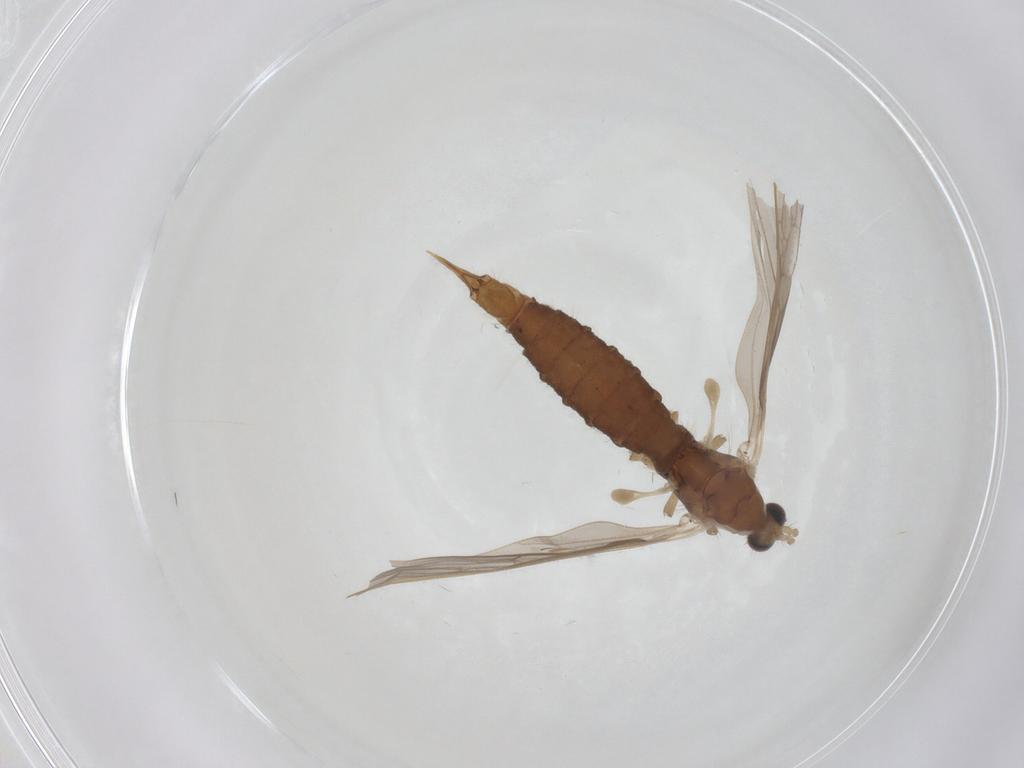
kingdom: Animalia
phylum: Arthropoda
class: Insecta
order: Diptera
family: Limoniidae
